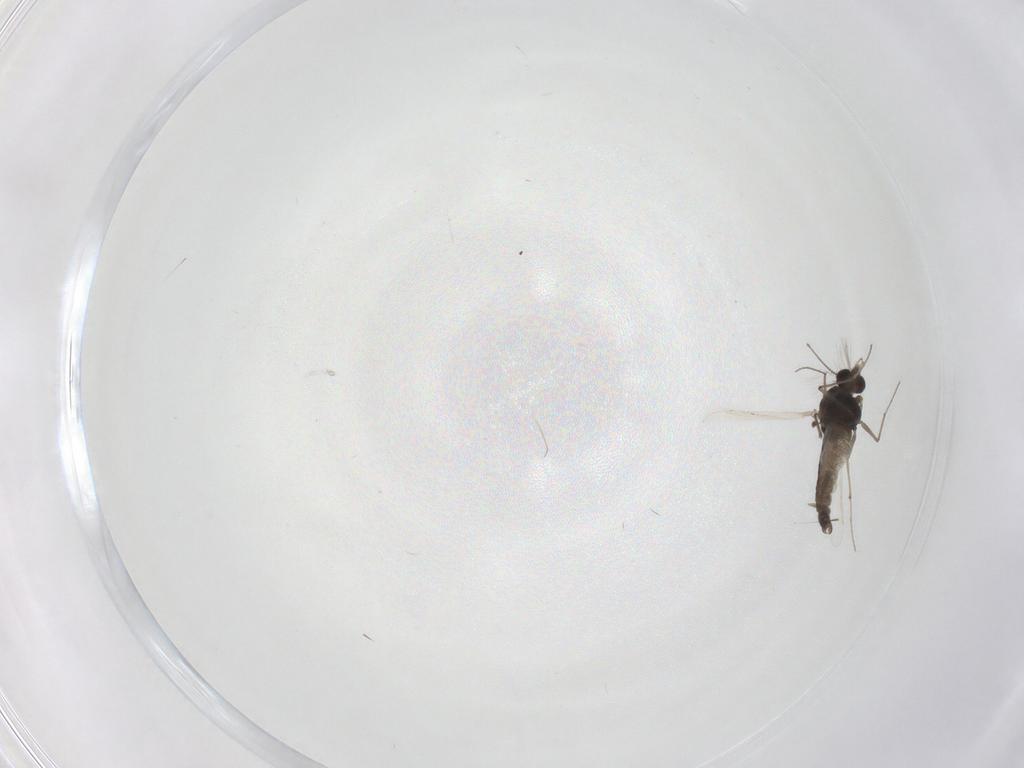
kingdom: Animalia
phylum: Arthropoda
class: Insecta
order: Diptera
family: Chironomidae
